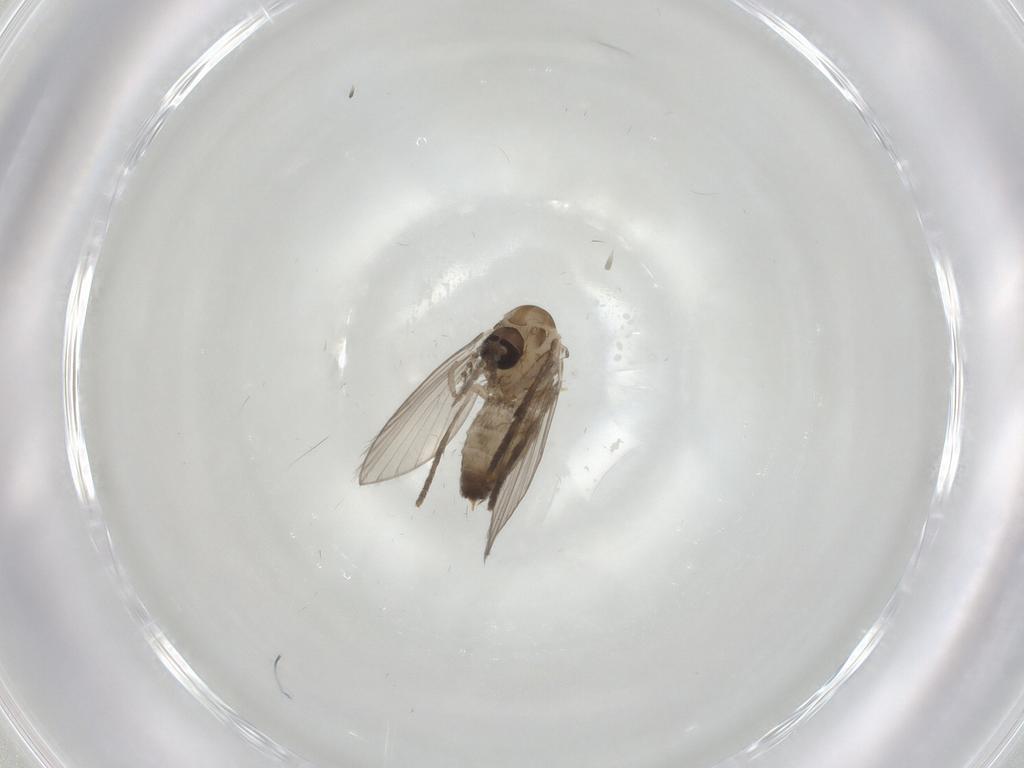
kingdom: Animalia
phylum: Arthropoda
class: Insecta
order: Diptera
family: Psychodidae
